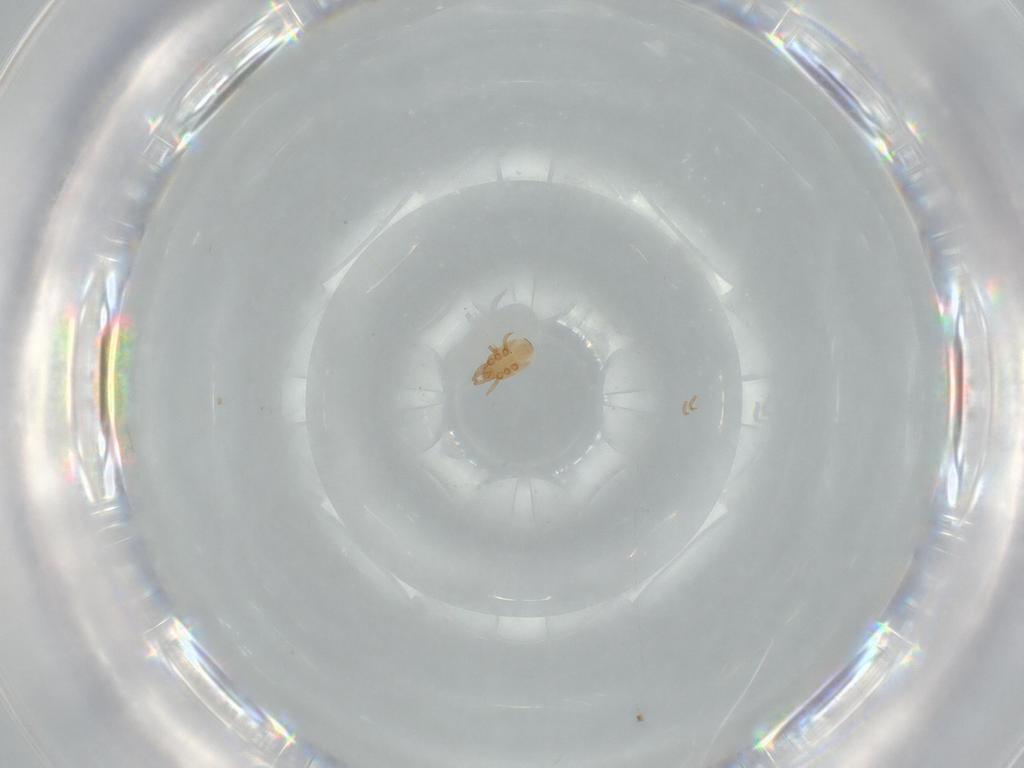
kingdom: Animalia
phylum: Arthropoda
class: Arachnida
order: Mesostigmata
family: Dinychidae
